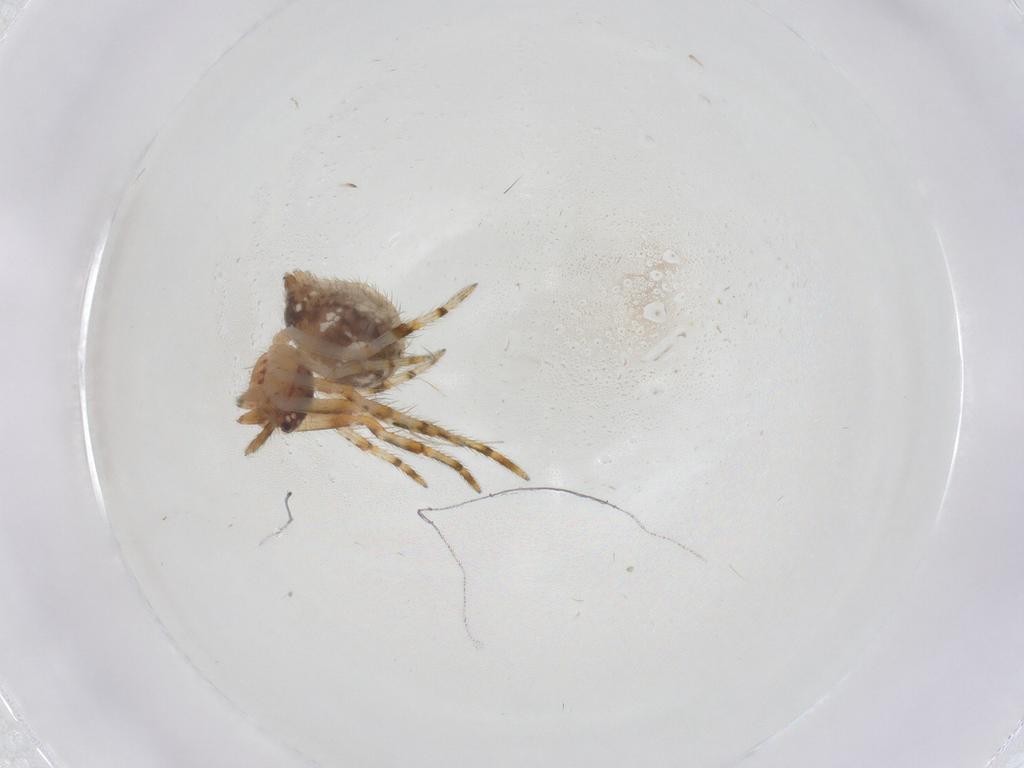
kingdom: Animalia
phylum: Arthropoda
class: Arachnida
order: Araneae
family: Theridiidae
